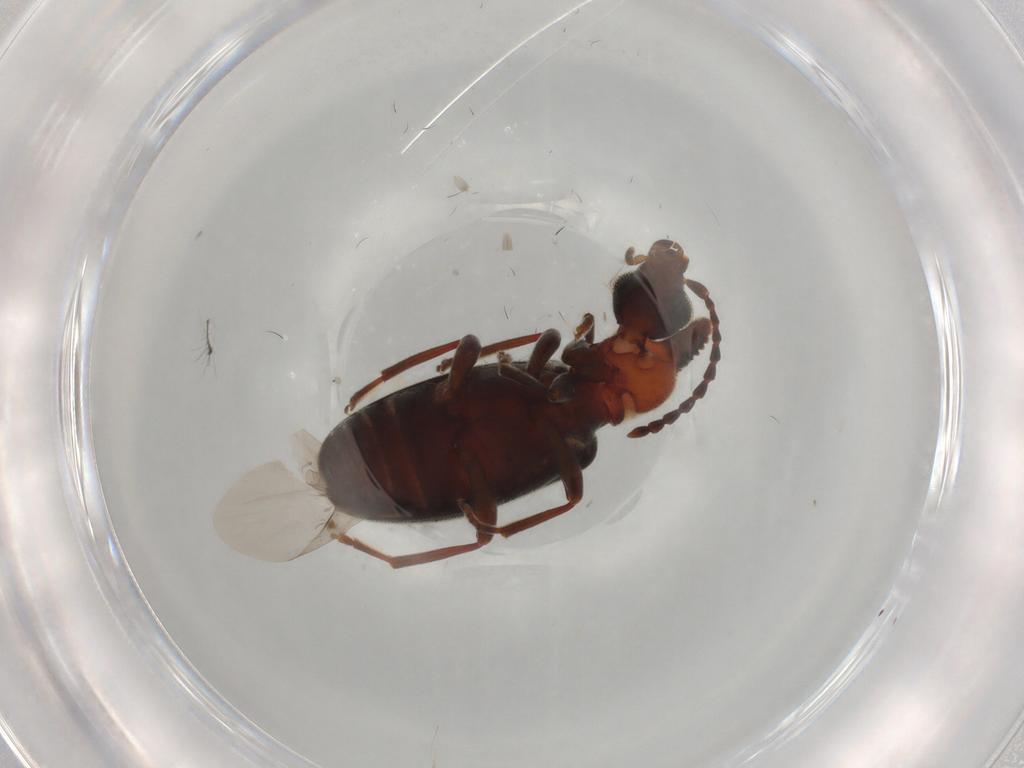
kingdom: Animalia
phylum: Arthropoda
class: Insecta
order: Coleoptera
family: Anthicidae
